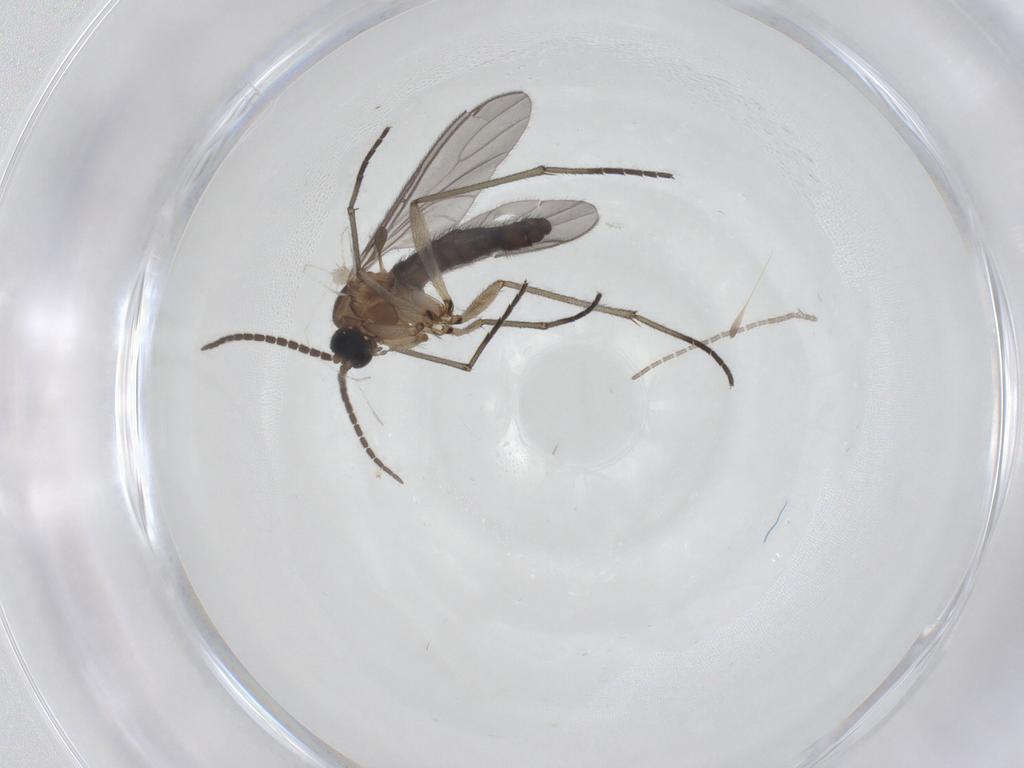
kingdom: Animalia
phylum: Arthropoda
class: Insecta
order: Diptera
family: Sciaridae
